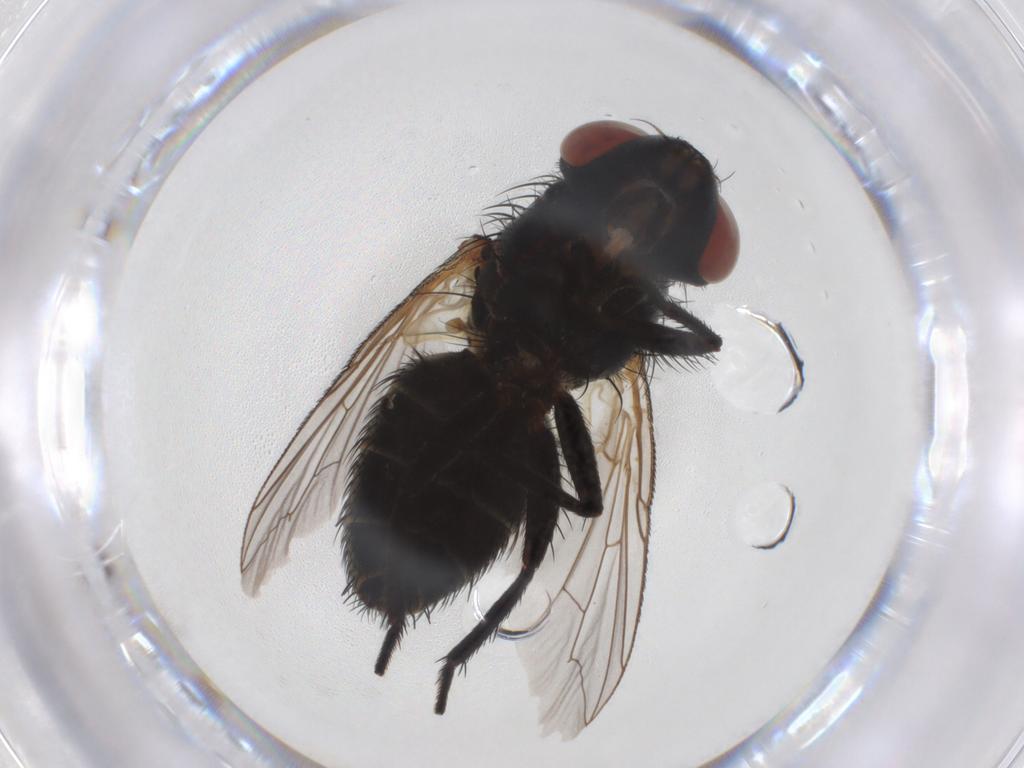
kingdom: Animalia
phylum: Arthropoda
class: Insecta
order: Diptera
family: Sarcophagidae
